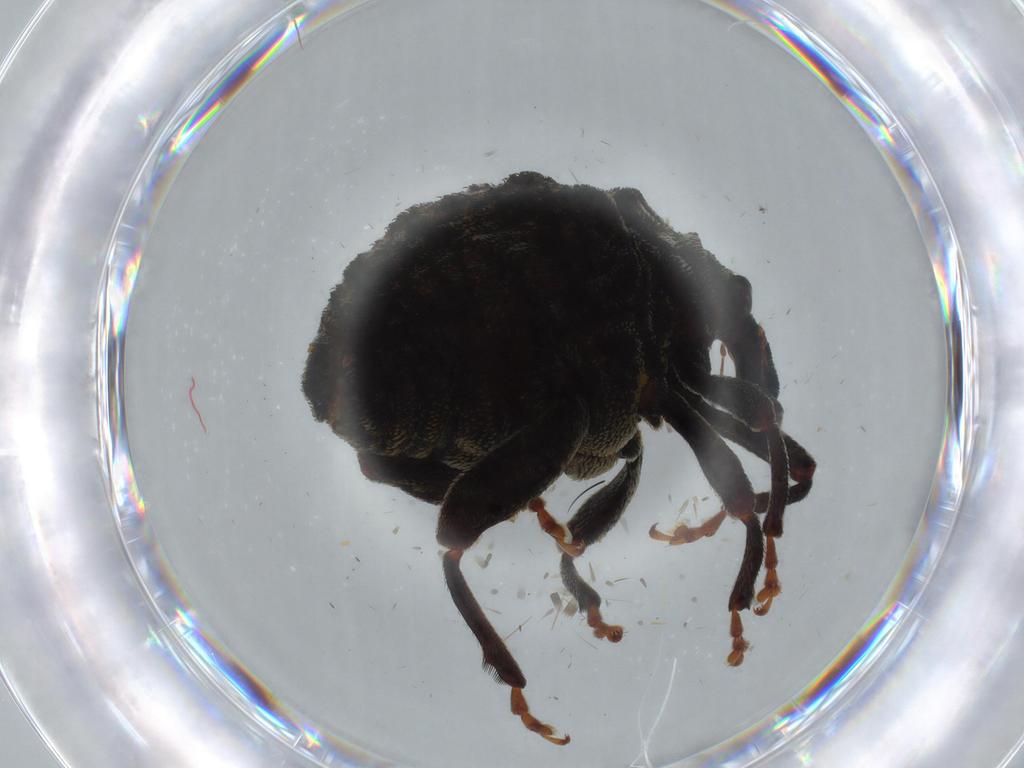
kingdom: Animalia
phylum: Arthropoda
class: Insecta
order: Coleoptera
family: Curculionidae
